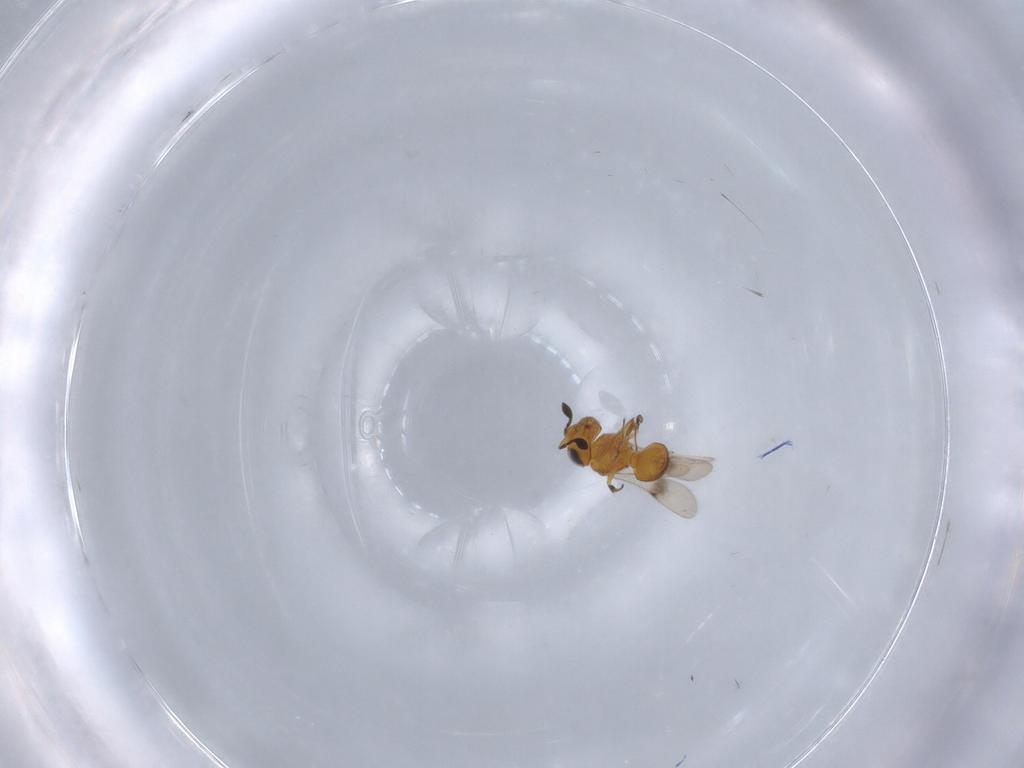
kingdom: Animalia
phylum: Arthropoda
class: Insecta
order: Hymenoptera
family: Scelionidae
